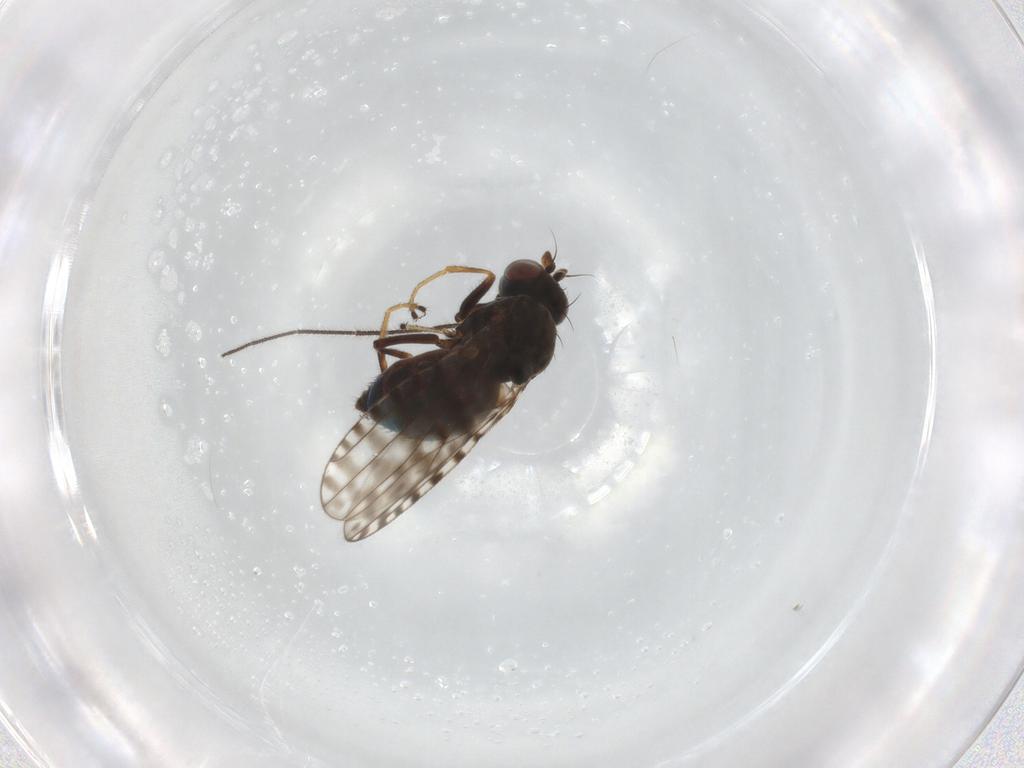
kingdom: Animalia
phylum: Arthropoda
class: Insecta
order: Diptera
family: Ephydridae
